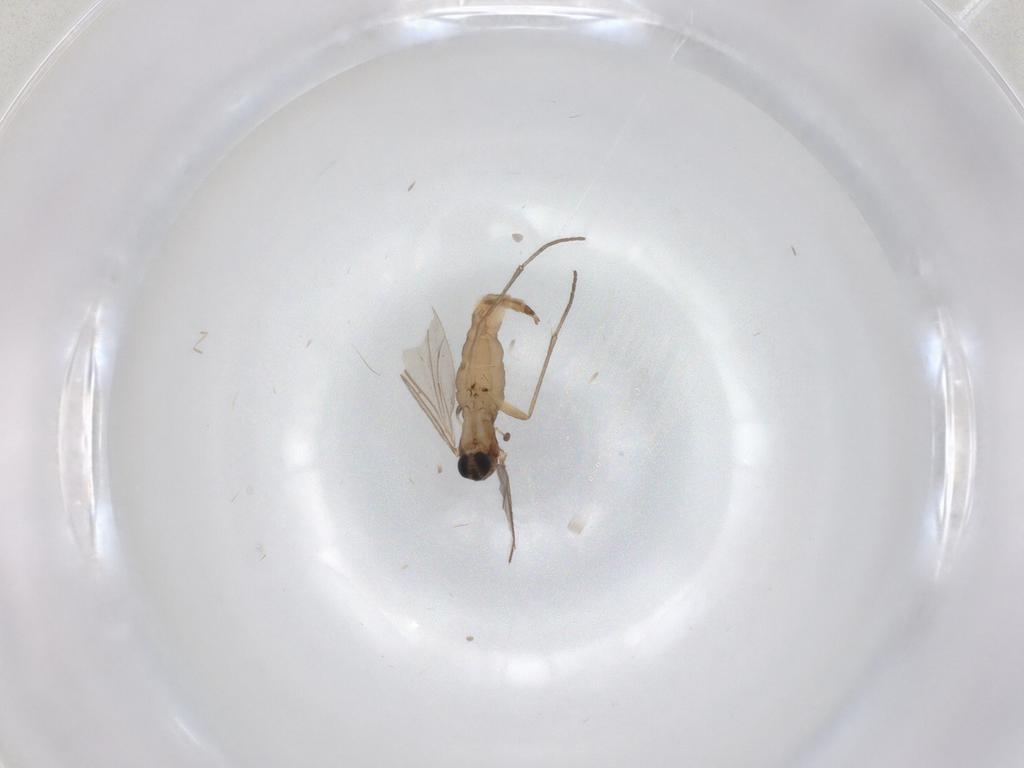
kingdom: Animalia
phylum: Arthropoda
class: Insecta
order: Diptera
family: Sciaridae
